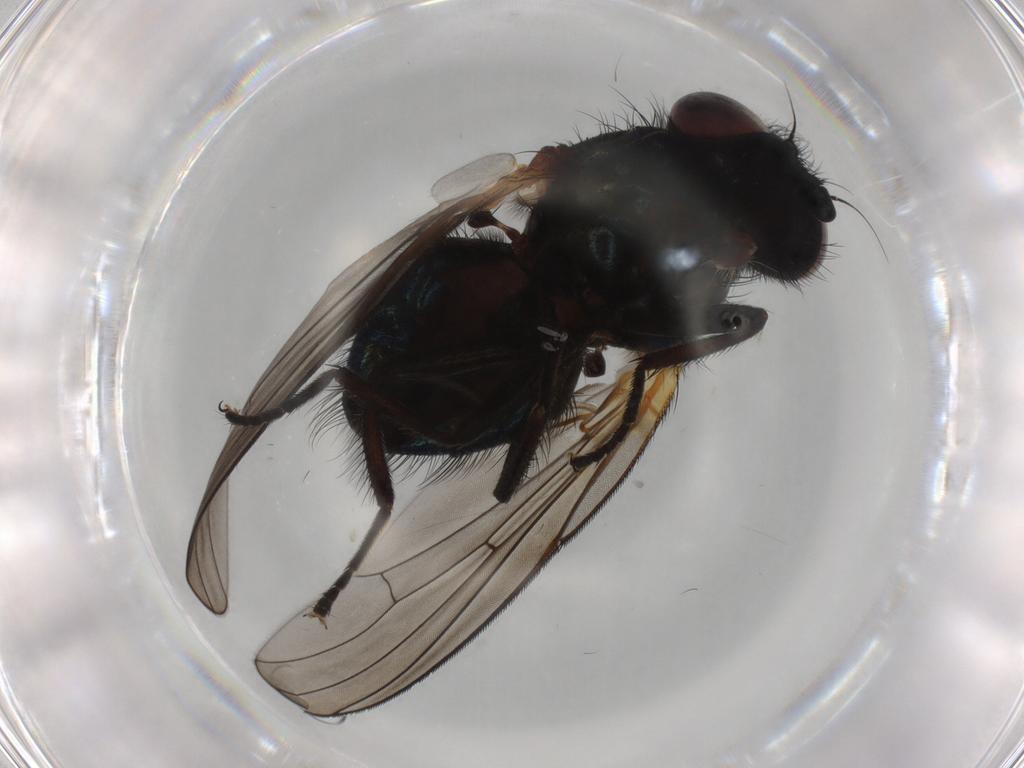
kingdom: Animalia
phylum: Arthropoda
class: Insecta
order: Diptera
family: Lonchaeidae
